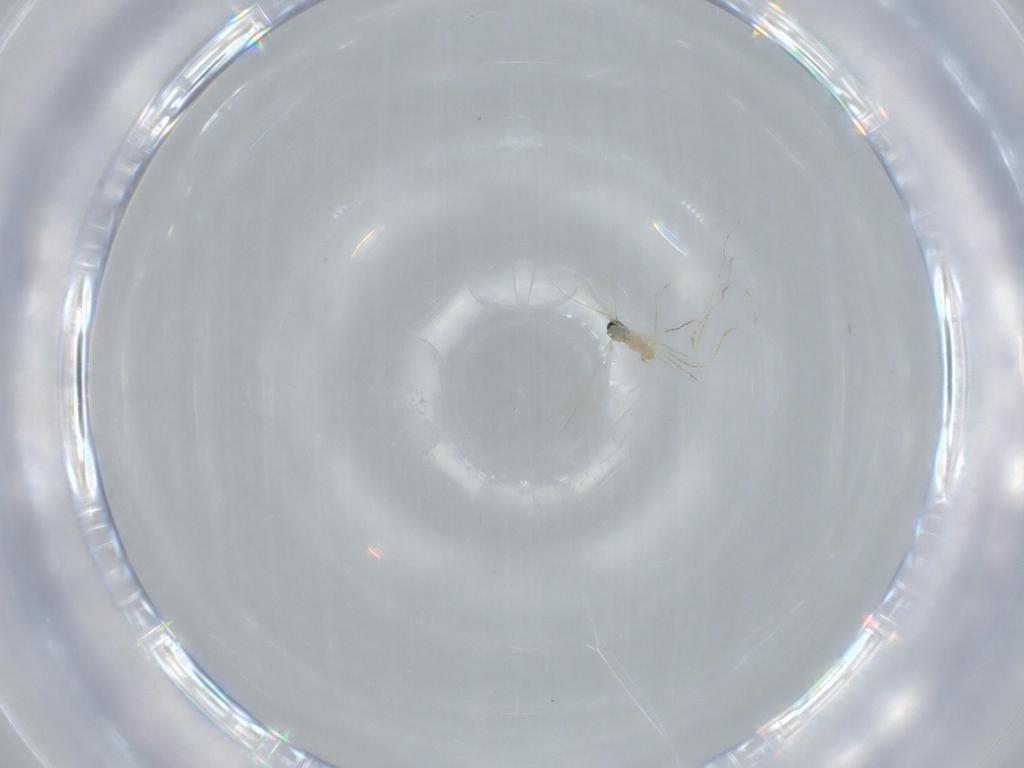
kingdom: Animalia
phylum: Arthropoda
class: Insecta
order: Diptera
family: Cecidomyiidae
